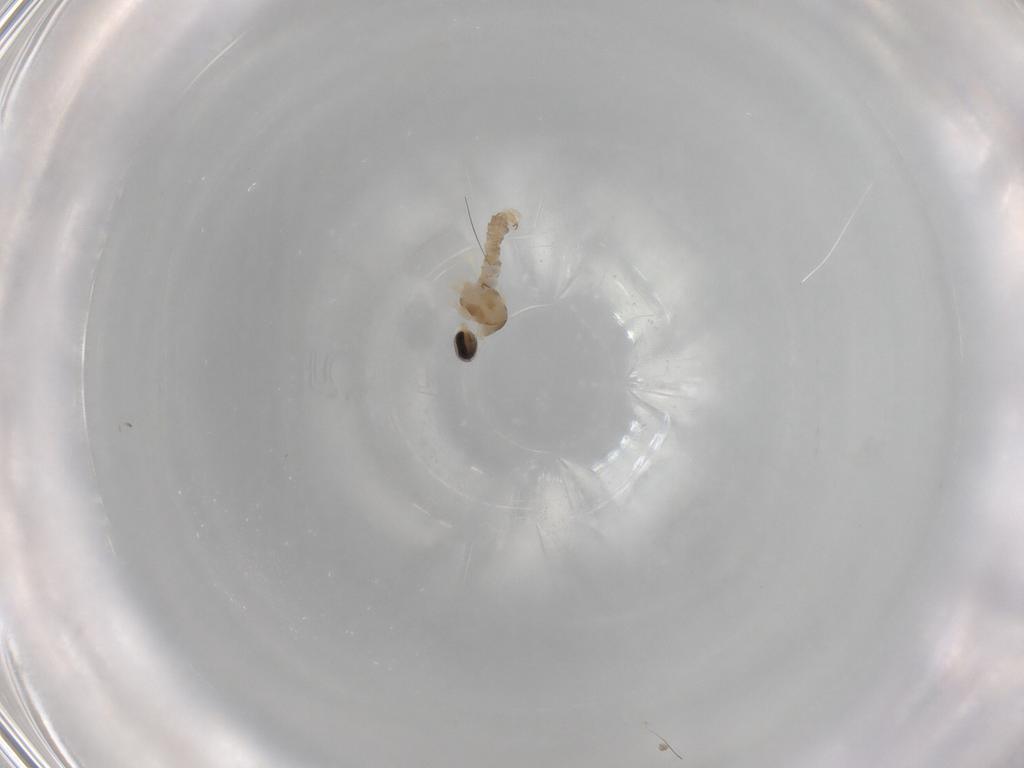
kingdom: Animalia
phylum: Arthropoda
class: Insecta
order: Diptera
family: Cecidomyiidae
